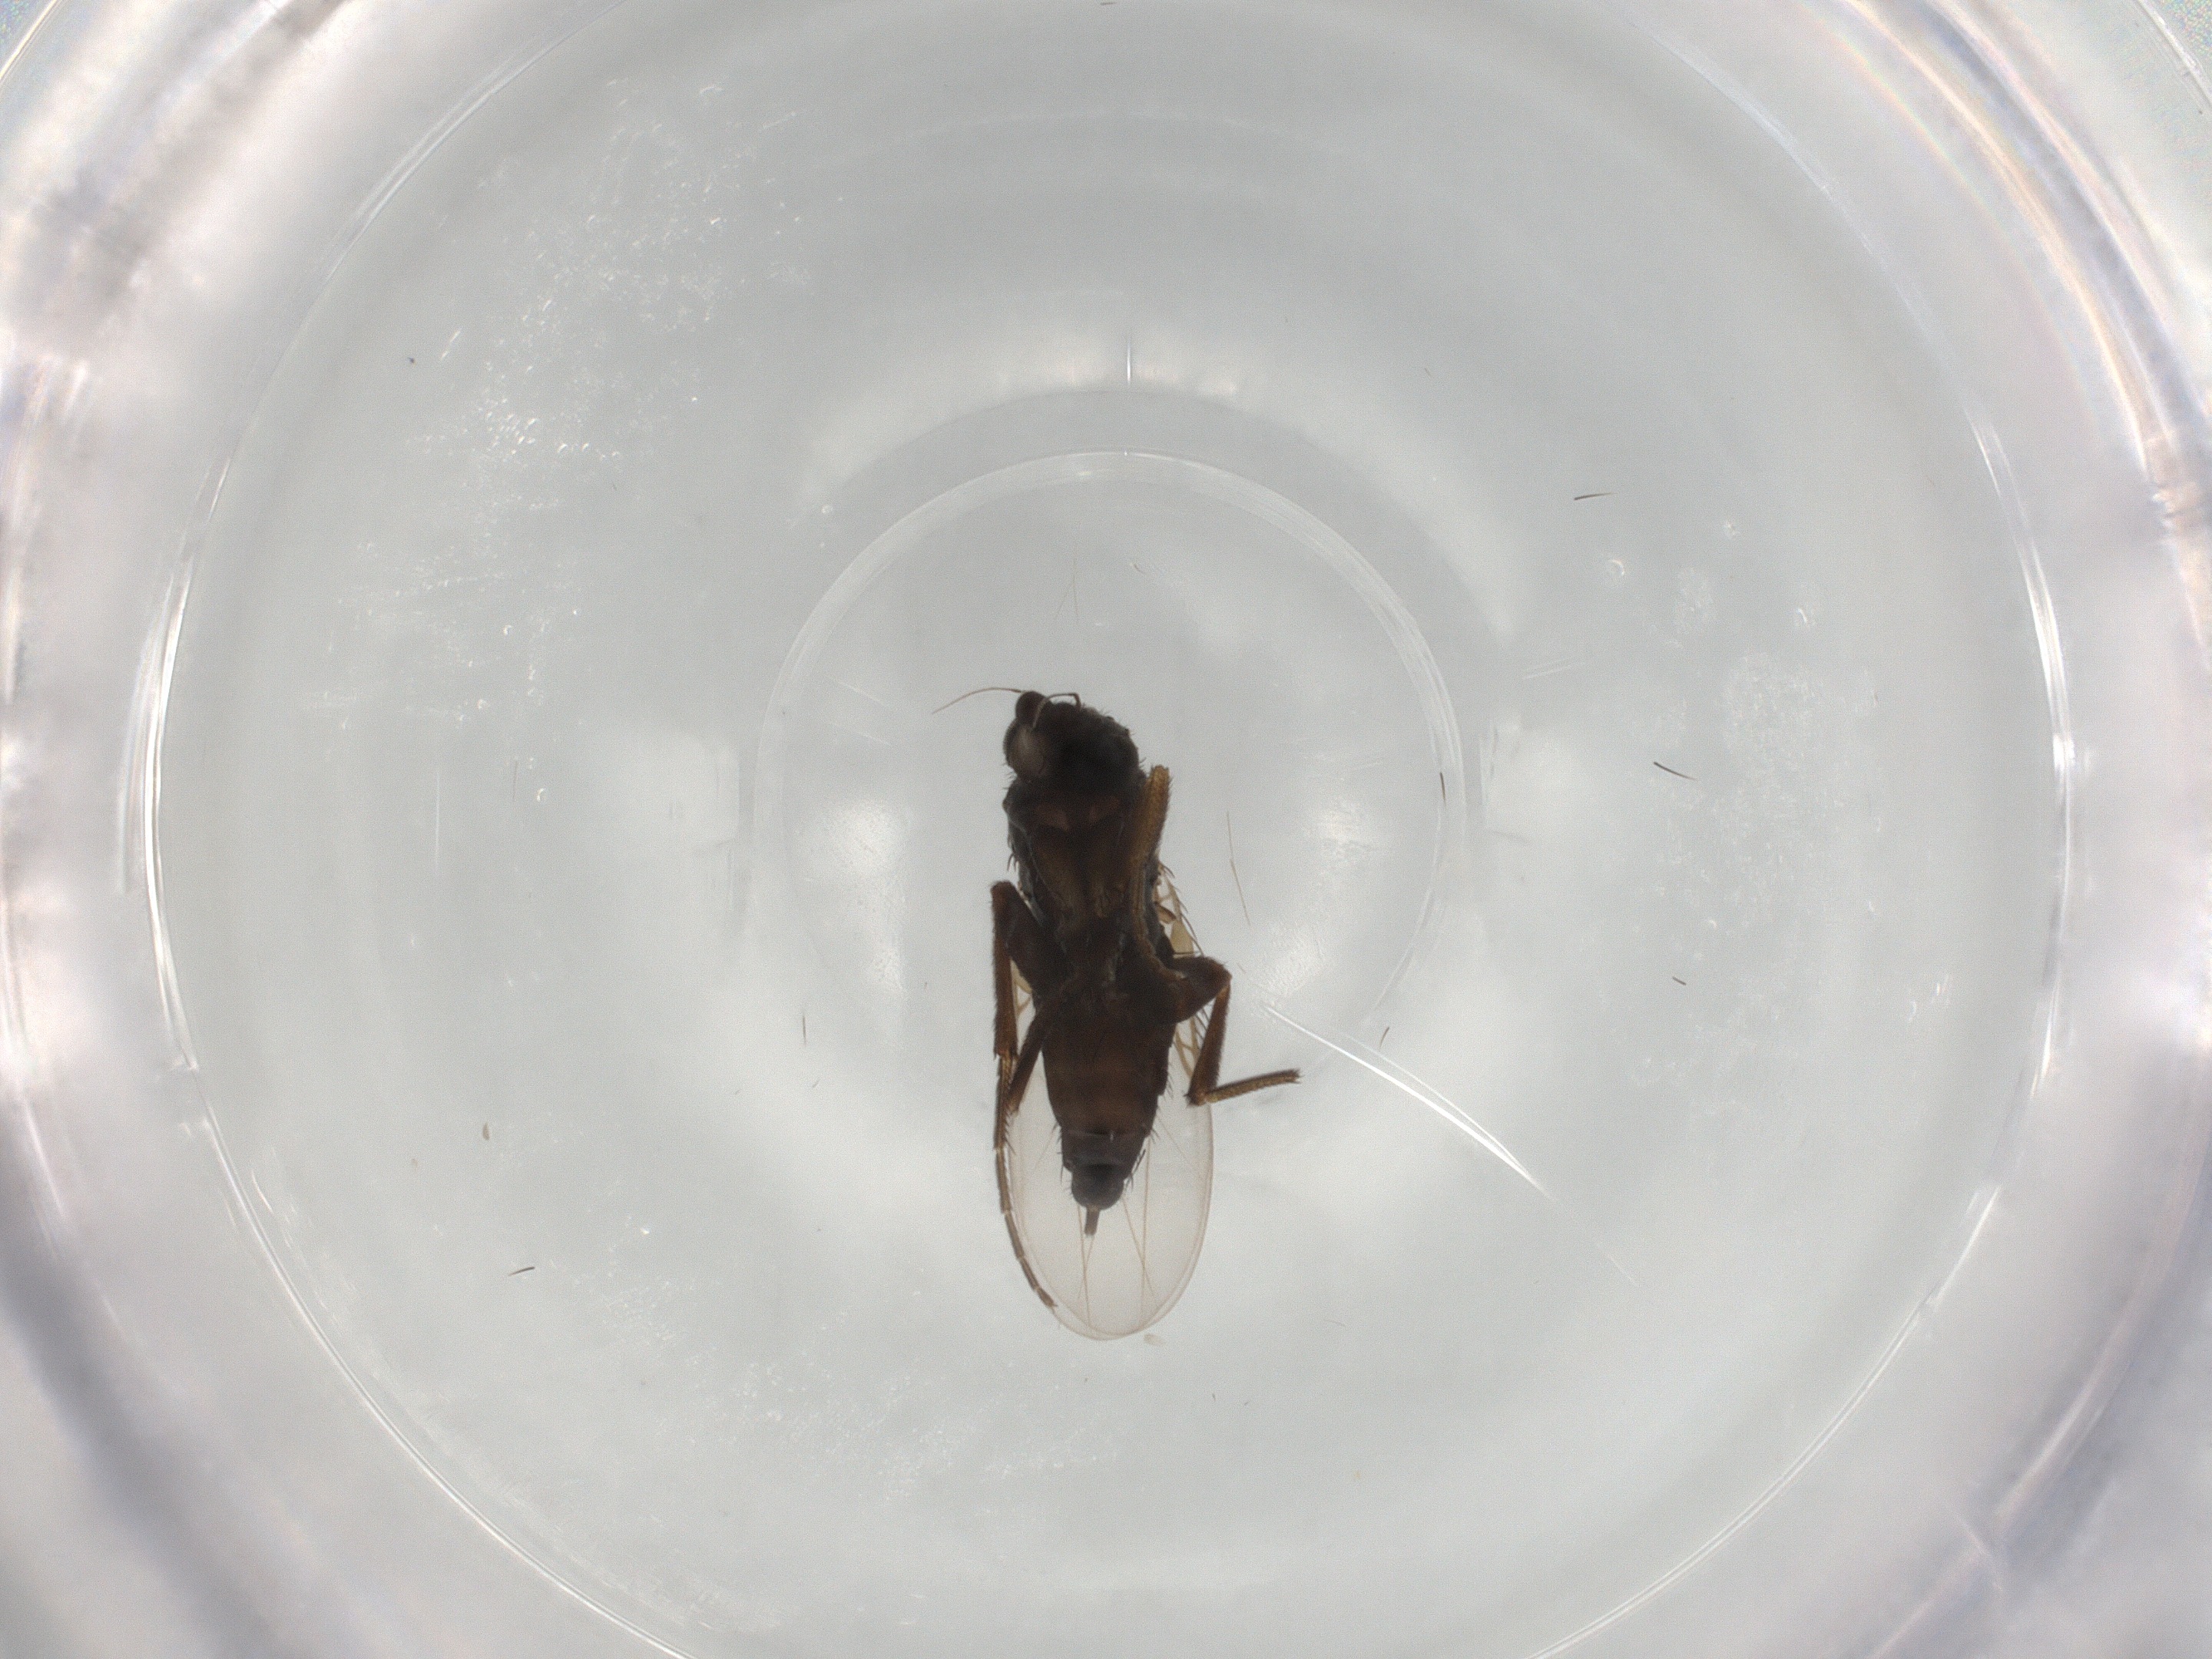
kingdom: Animalia
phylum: Arthropoda
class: Insecta
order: Diptera
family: Phoridae
